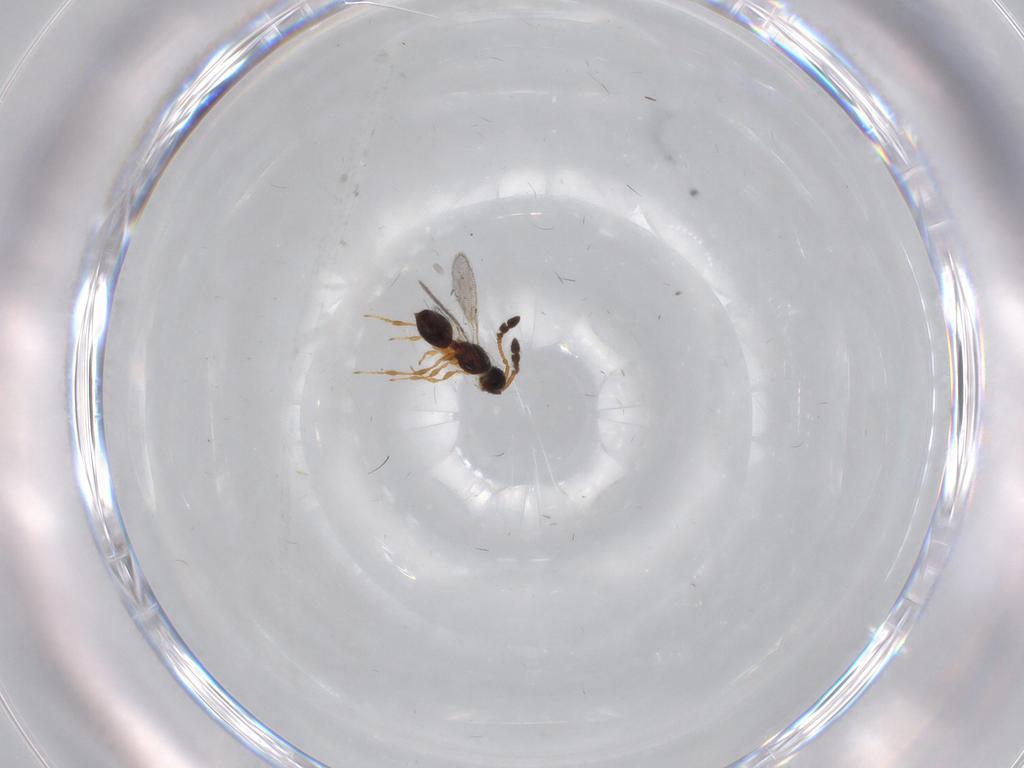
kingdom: Animalia
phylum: Arthropoda
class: Insecta
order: Hymenoptera
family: Diapriidae
